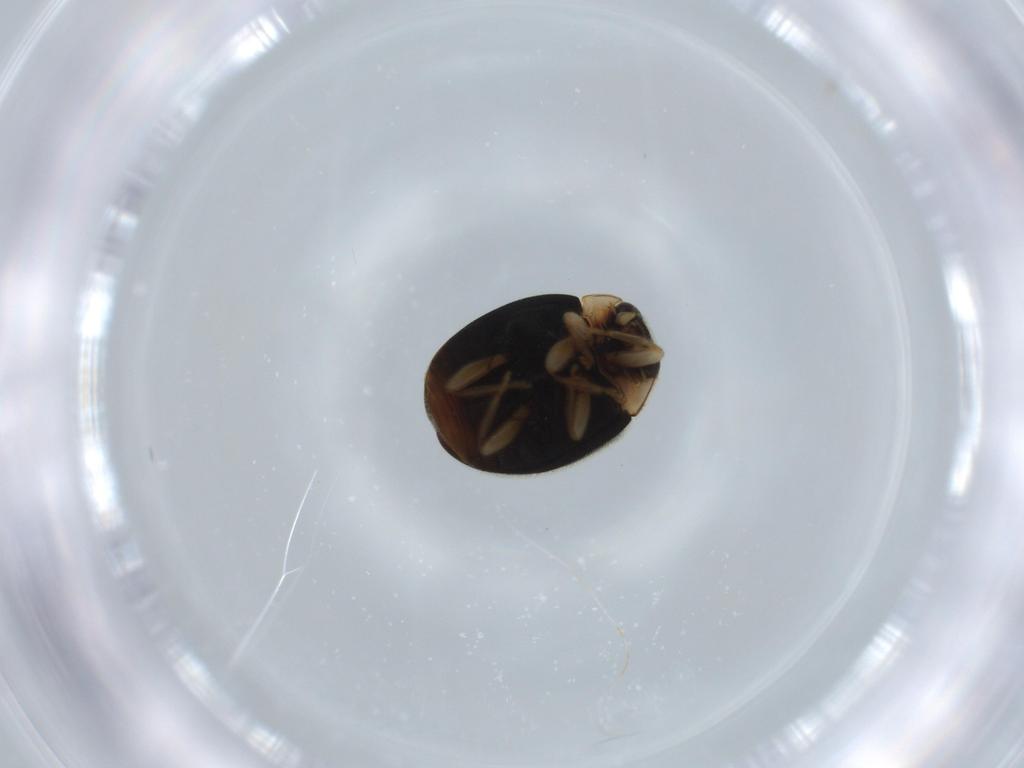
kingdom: Animalia
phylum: Arthropoda
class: Insecta
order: Coleoptera
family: Coccinellidae
